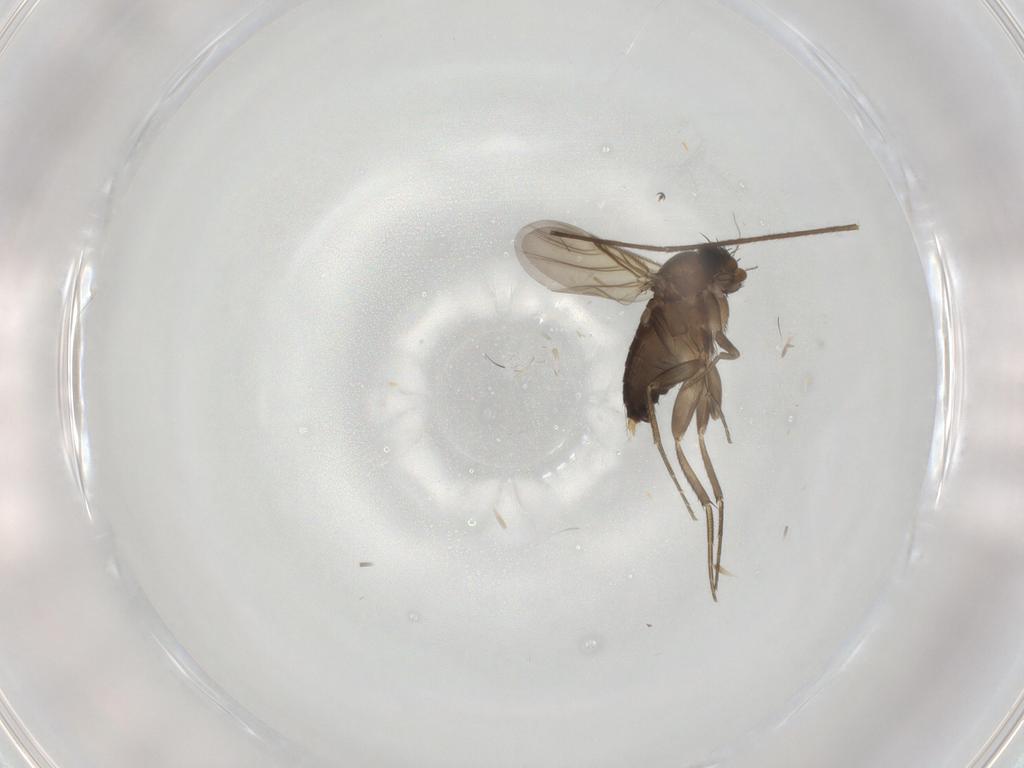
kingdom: Animalia
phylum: Arthropoda
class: Insecta
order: Diptera
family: Phoridae
